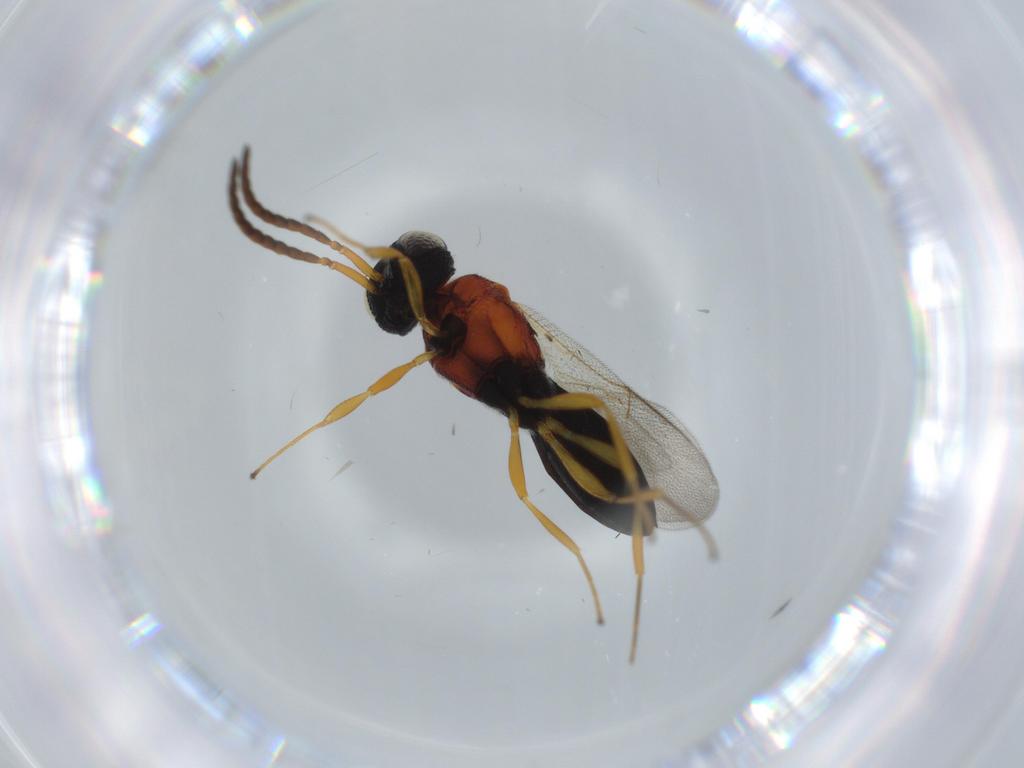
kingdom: Animalia
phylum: Arthropoda
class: Insecta
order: Hymenoptera
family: Scelionidae
